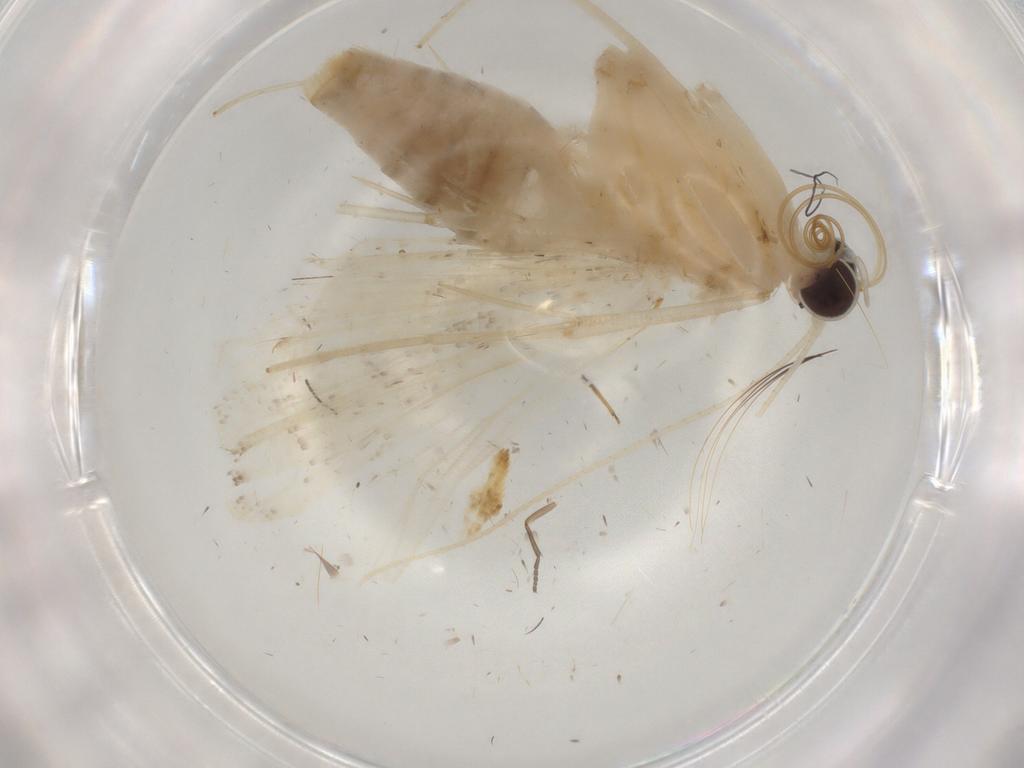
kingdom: Animalia
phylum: Arthropoda
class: Insecta
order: Lepidoptera
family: Crambidae
